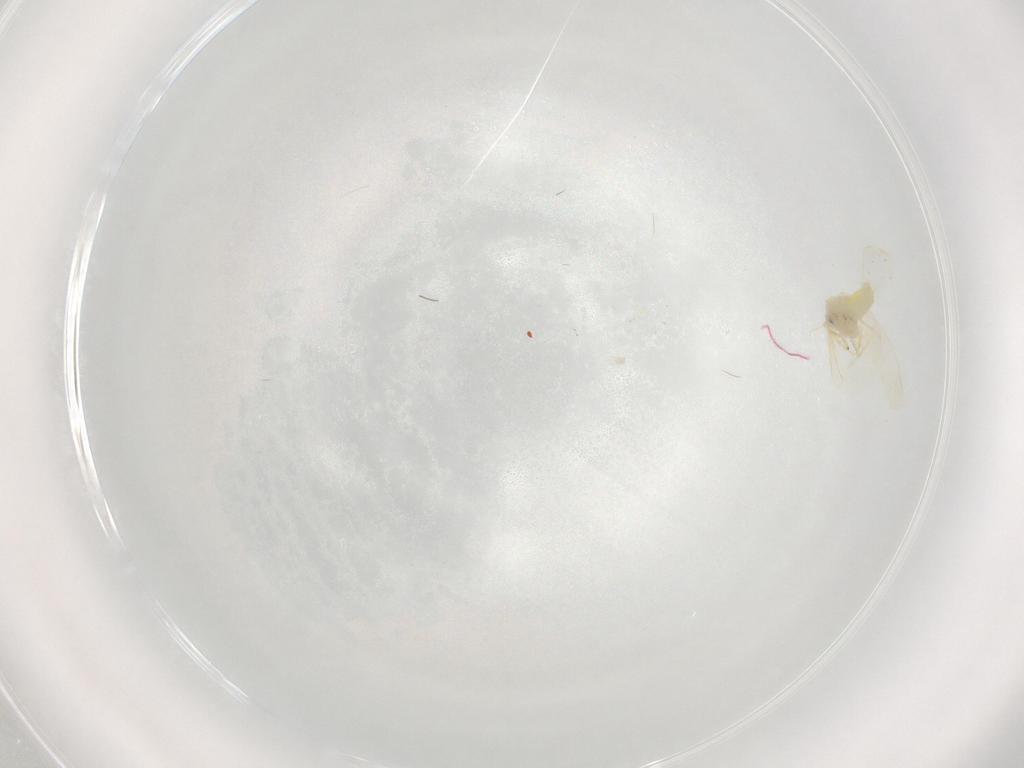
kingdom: Animalia
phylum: Arthropoda
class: Insecta
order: Hemiptera
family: Aleyrodidae
